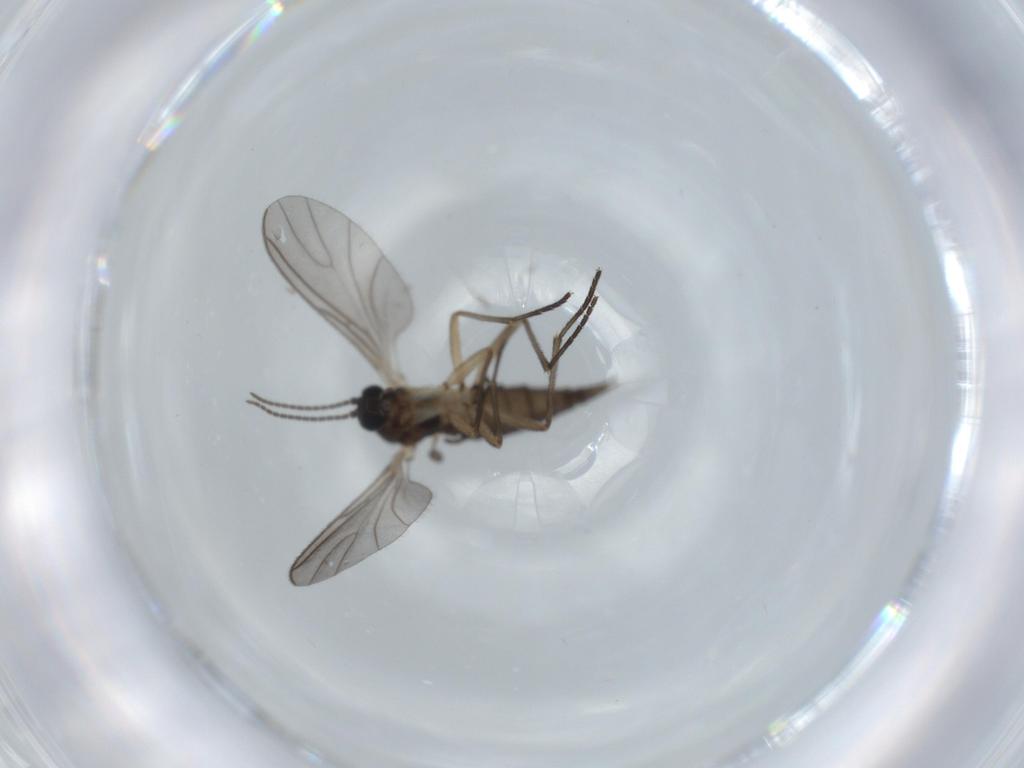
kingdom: Animalia
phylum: Arthropoda
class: Insecta
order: Diptera
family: Sciaridae
